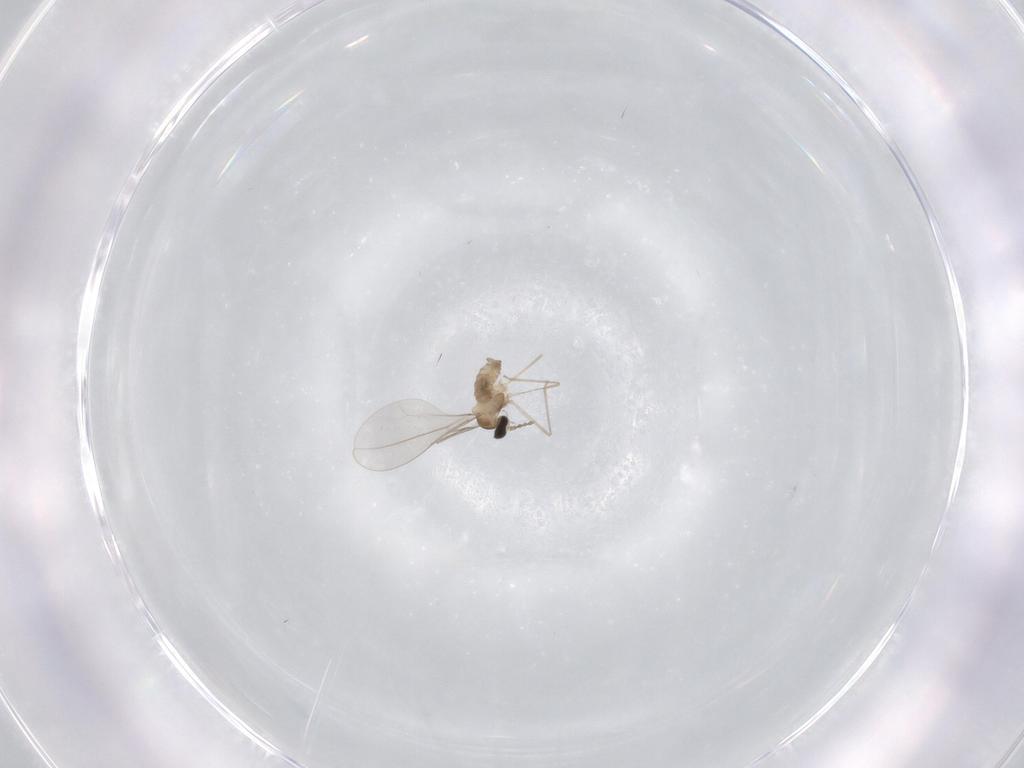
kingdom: Animalia
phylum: Arthropoda
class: Insecta
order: Diptera
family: Cecidomyiidae
